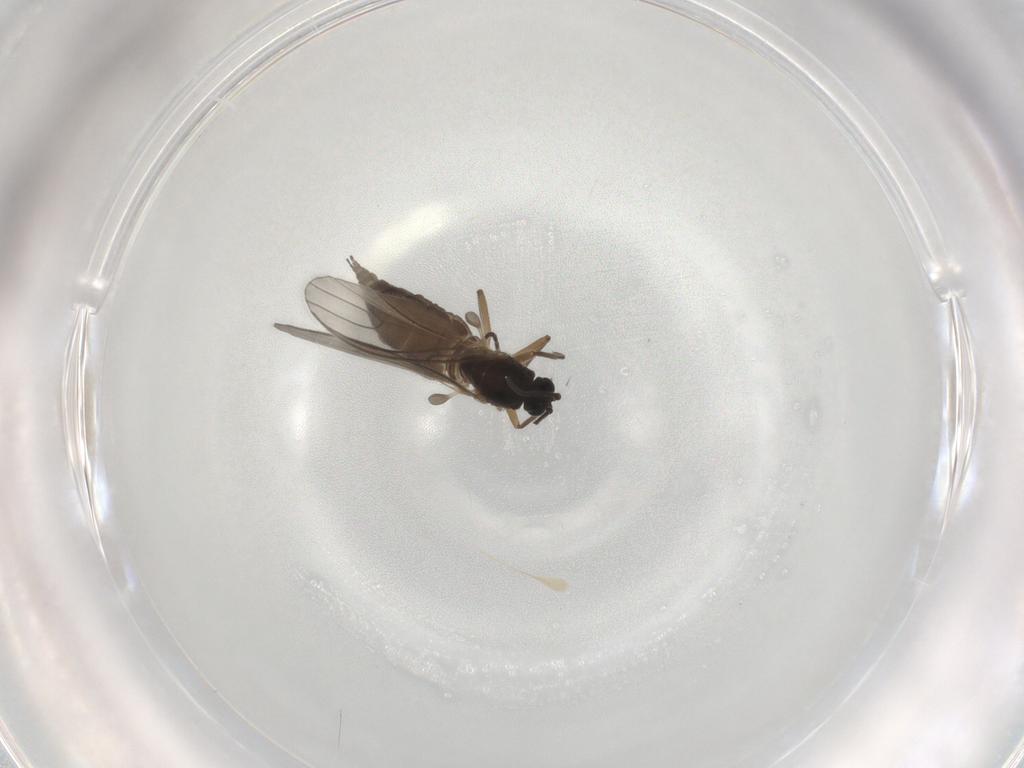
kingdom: Animalia
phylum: Arthropoda
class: Insecta
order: Diptera
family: Sciaridae
